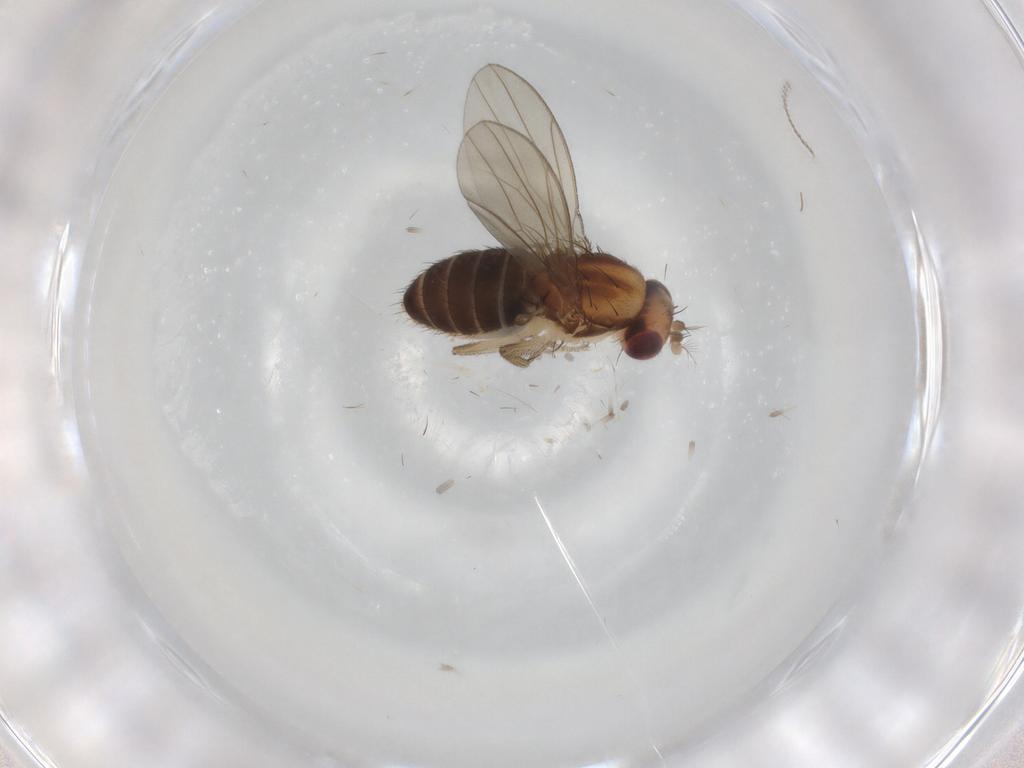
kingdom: Animalia
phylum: Arthropoda
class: Insecta
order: Diptera
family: Drosophilidae
